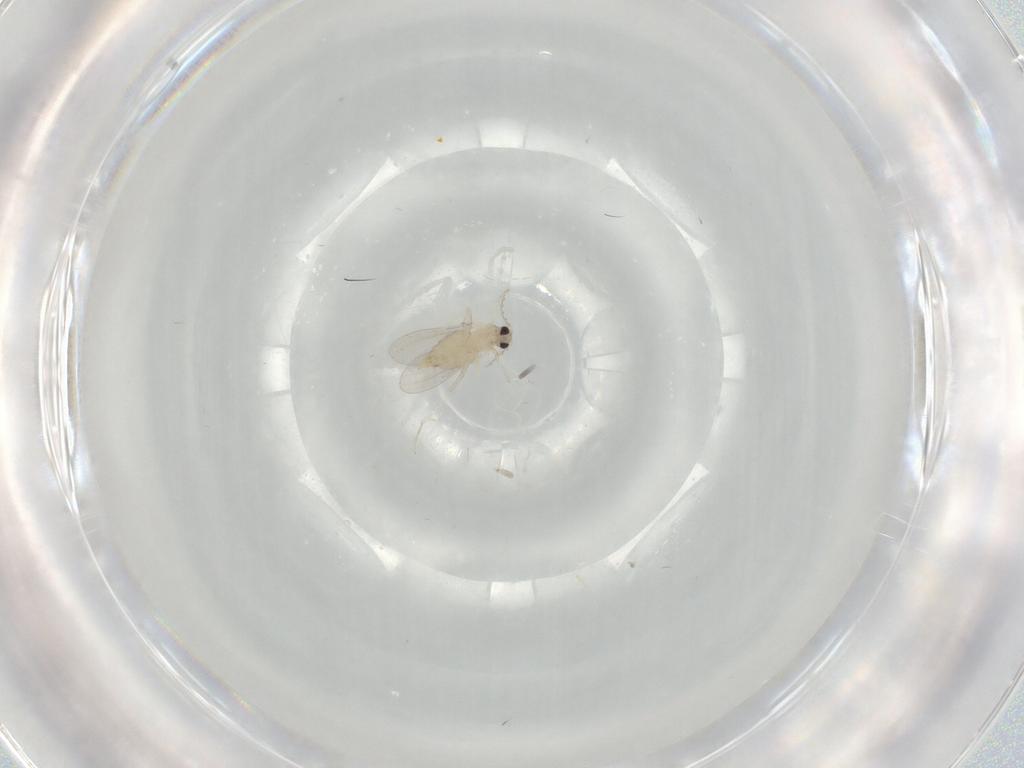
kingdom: Animalia
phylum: Arthropoda
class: Insecta
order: Diptera
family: Cecidomyiidae
